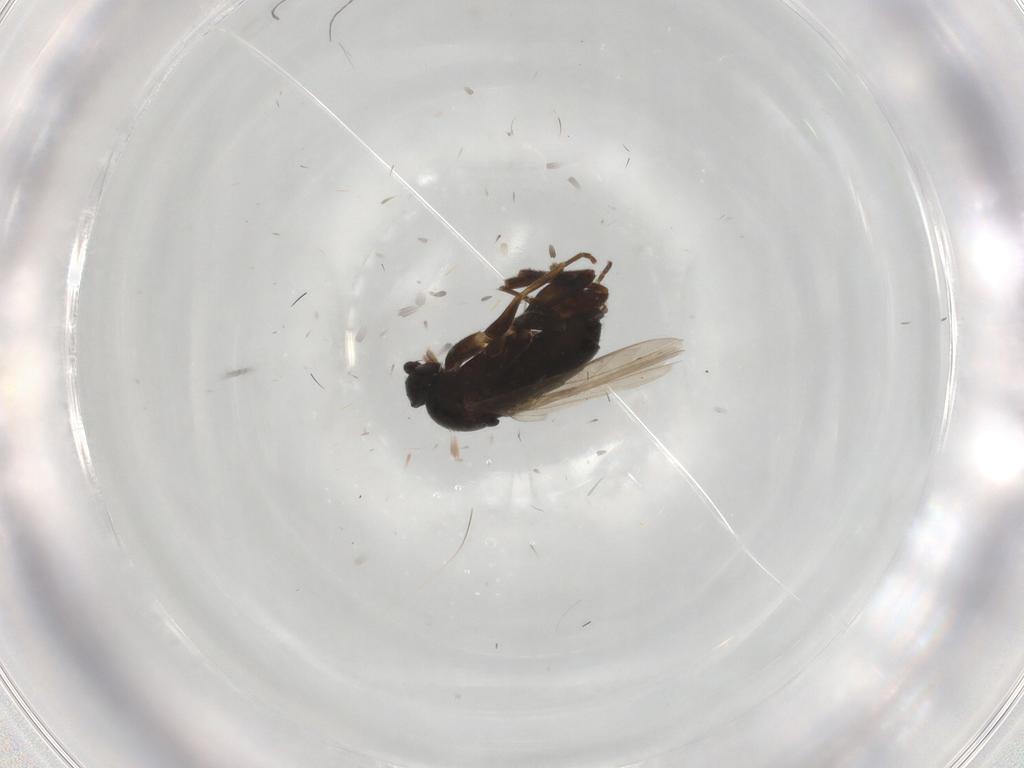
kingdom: Animalia
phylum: Arthropoda
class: Insecta
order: Diptera
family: Phoridae
